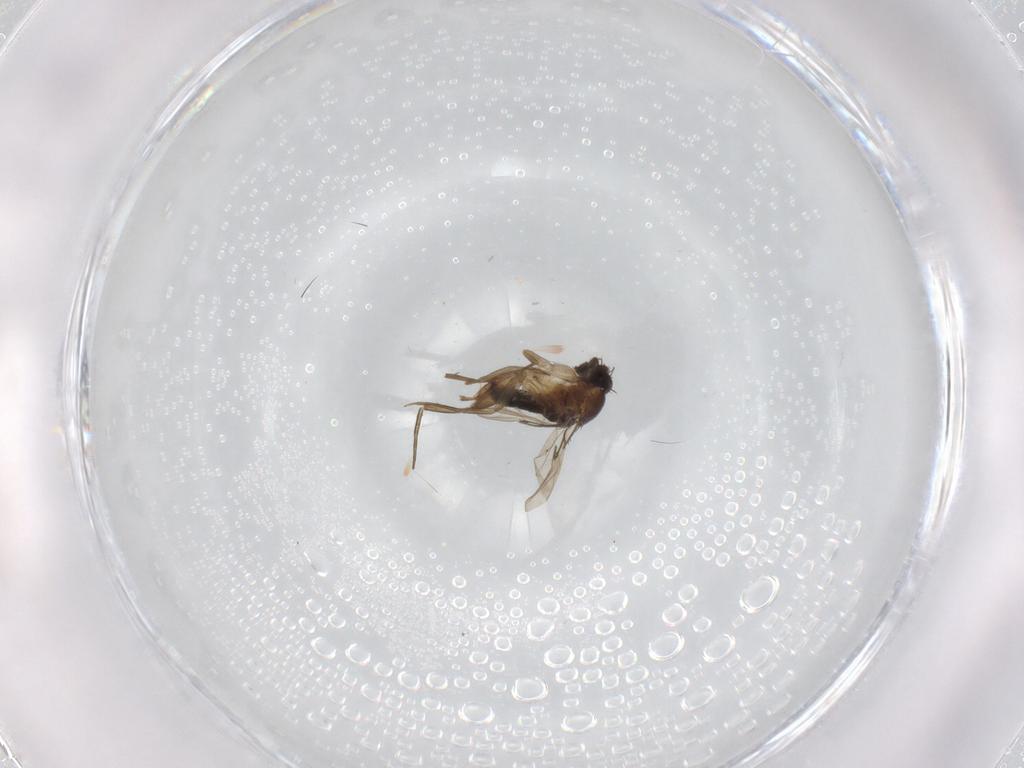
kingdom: Animalia
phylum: Arthropoda
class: Insecta
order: Diptera
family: Phoridae
